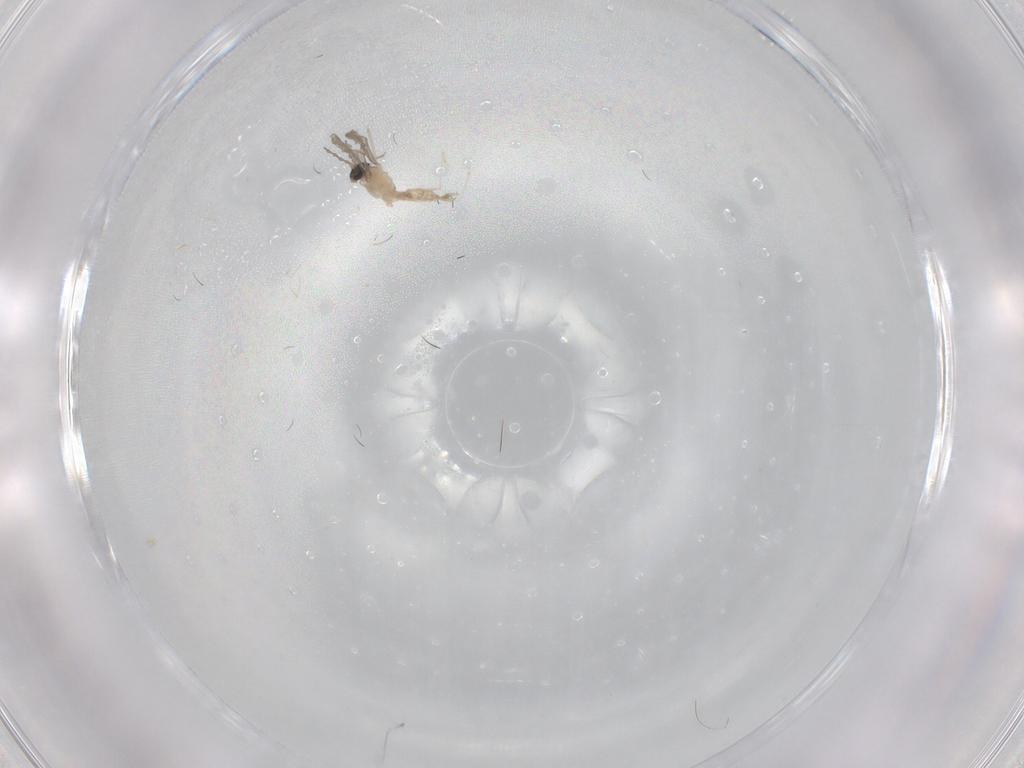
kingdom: Animalia
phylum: Arthropoda
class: Insecta
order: Diptera
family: Cecidomyiidae
